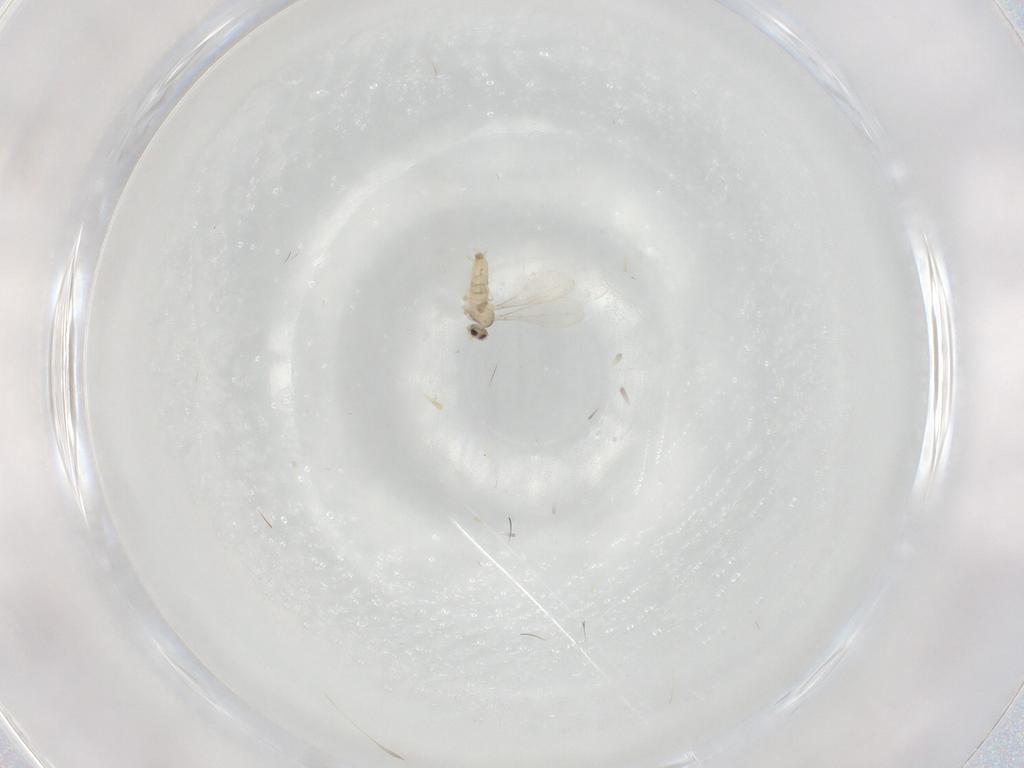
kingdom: Animalia
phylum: Arthropoda
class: Insecta
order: Diptera
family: Cecidomyiidae
